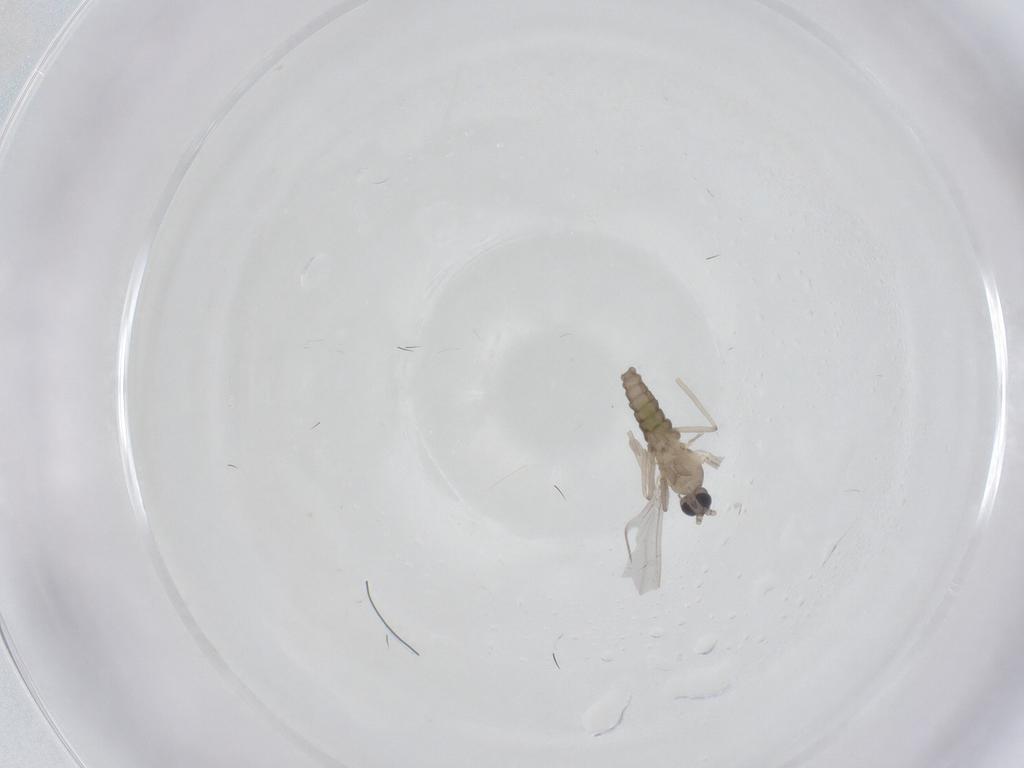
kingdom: Animalia
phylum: Arthropoda
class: Insecta
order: Diptera
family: Cecidomyiidae
